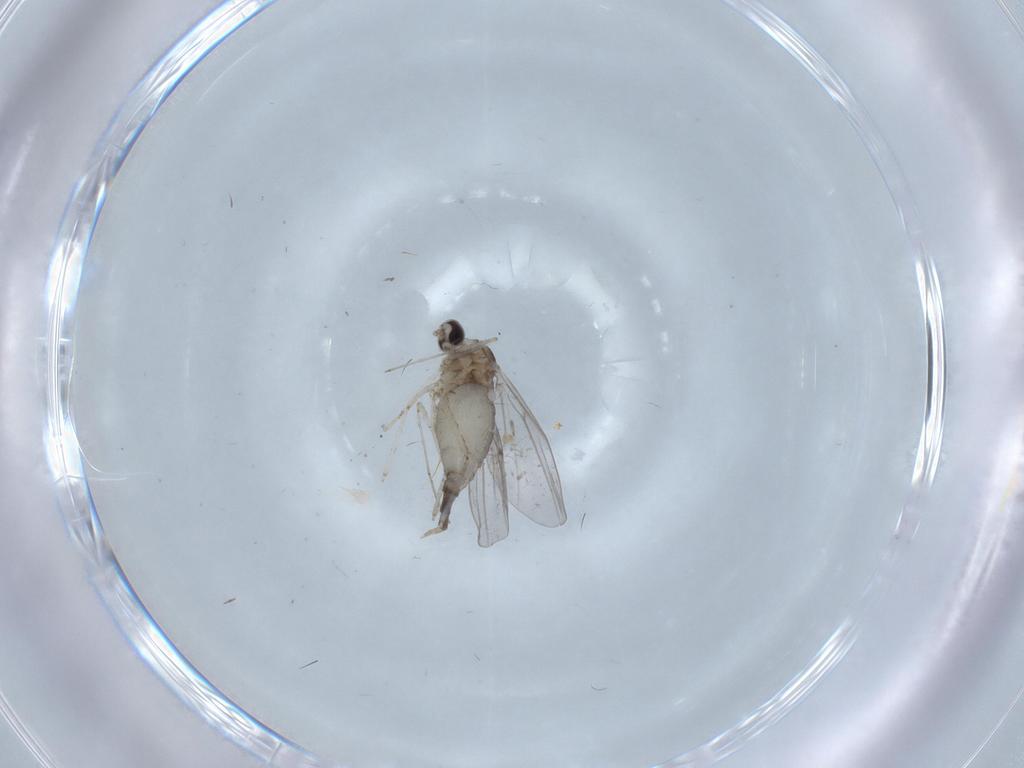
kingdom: Animalia
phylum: Arthropoda
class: Insecta
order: Diptera
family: Cecidomyiidae
